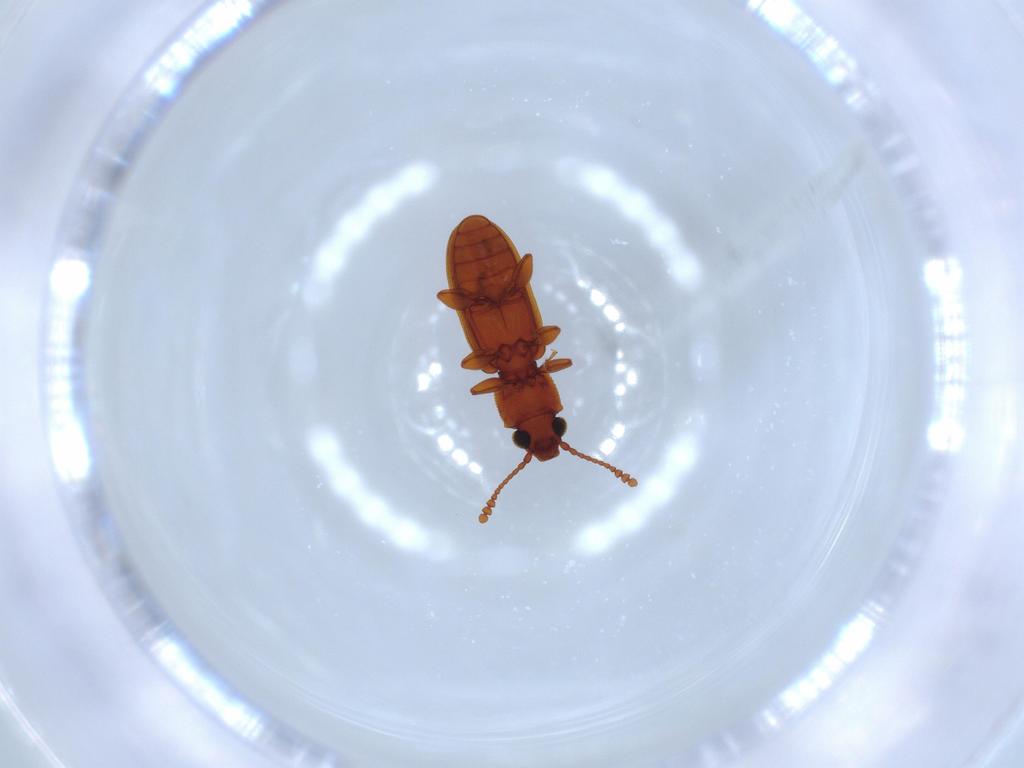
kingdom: Animalia
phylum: Arthropoda
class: Insecta
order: Coleoptera
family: Silvanidae
